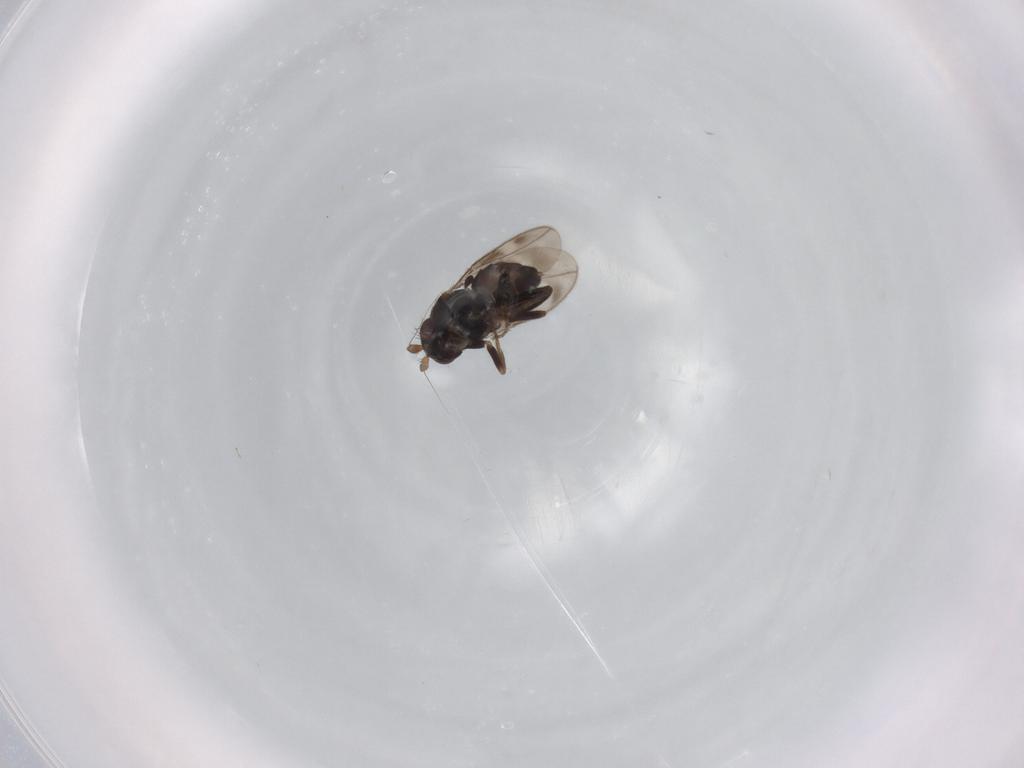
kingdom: Animalia
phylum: Arthropoda
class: Insecta
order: Diptera
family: Sphaeroceridae
